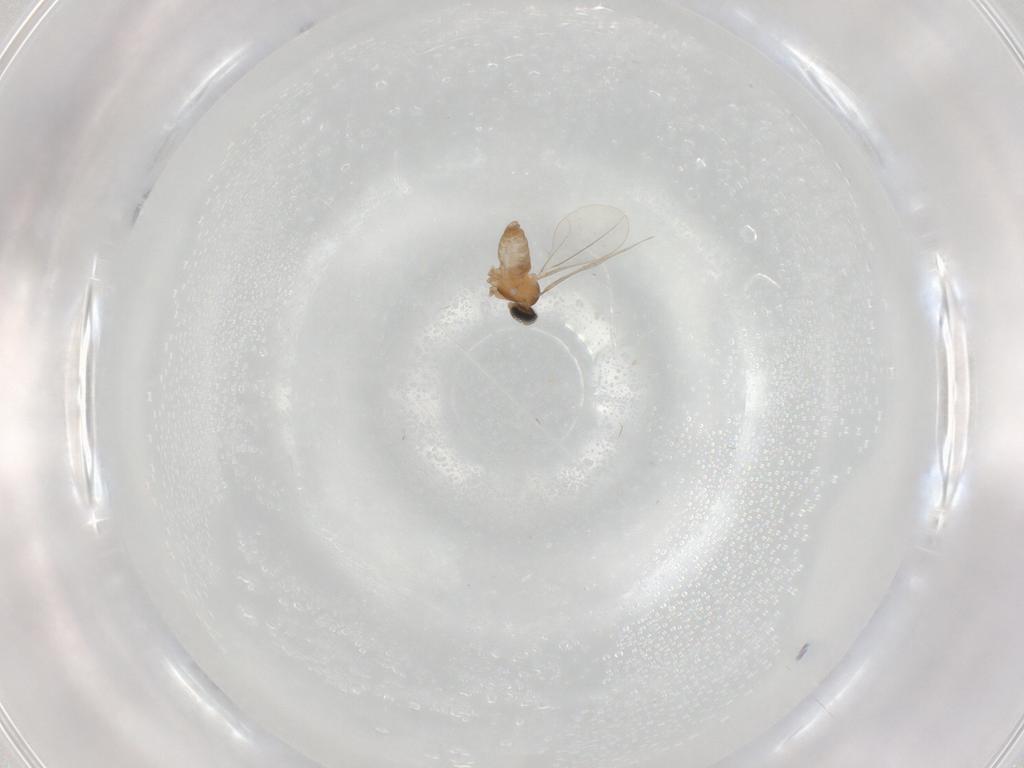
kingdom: Animalia
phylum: Arthropoda
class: Insecta
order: Diptera
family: Cecidomyiidae
